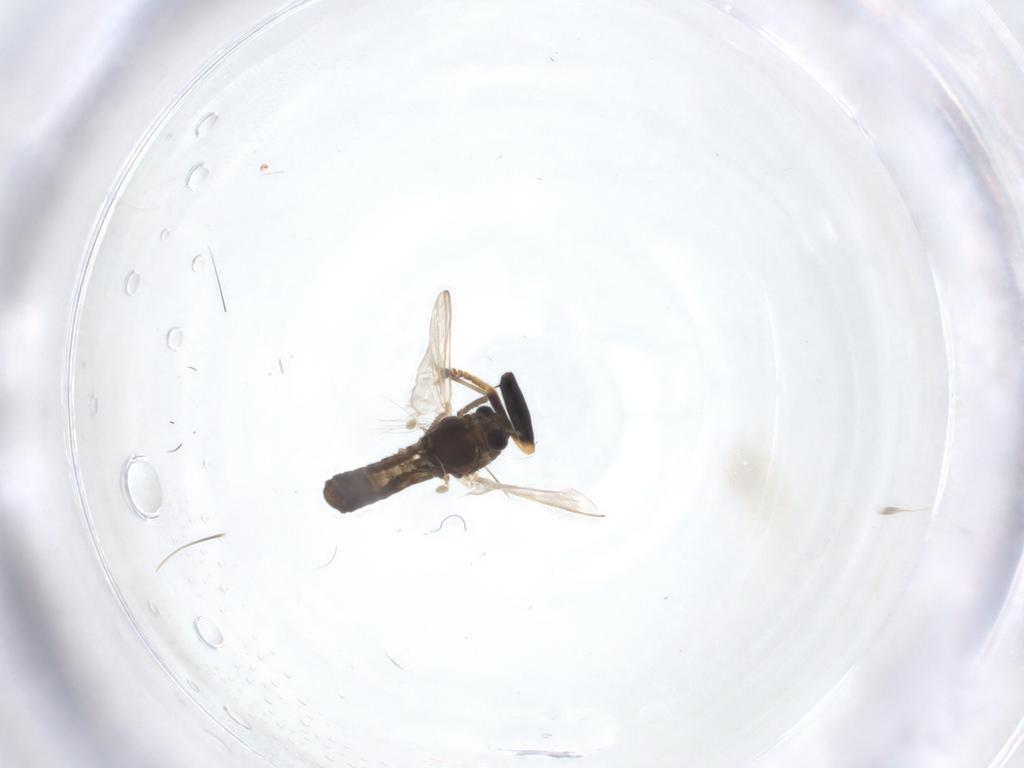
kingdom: Animalia
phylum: Arthropoda
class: Insecta
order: Diptera
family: Chironomidae
